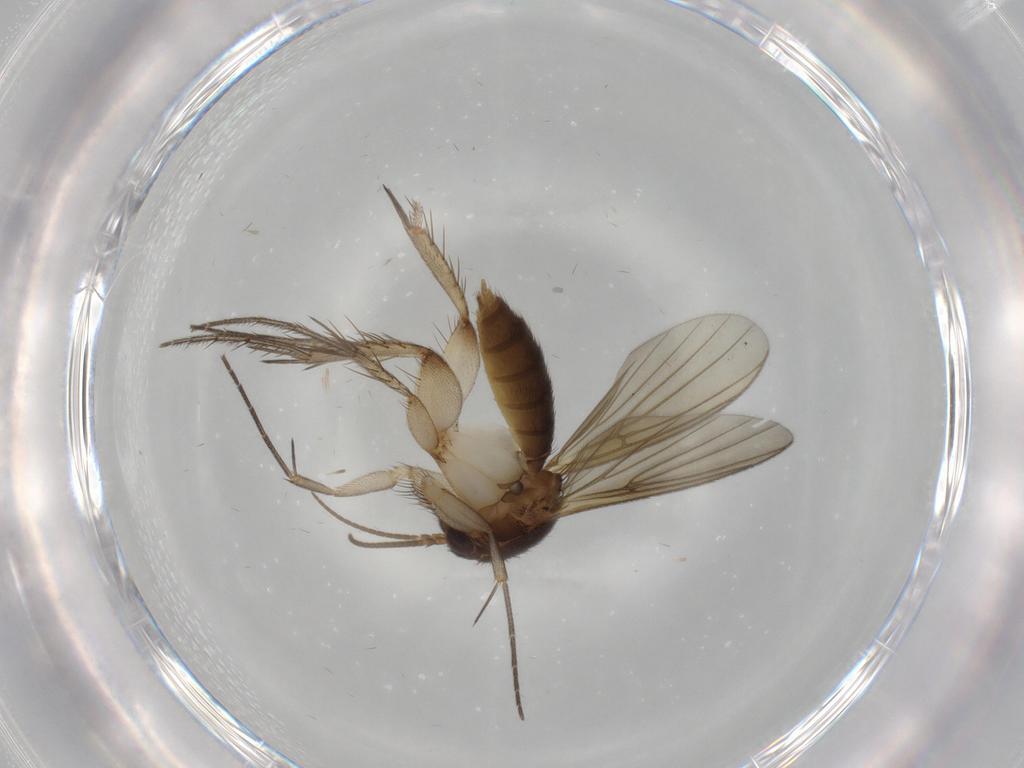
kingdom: Animalia
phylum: Arthropoda
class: Insecta
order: Diptera
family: Mycetophilidae
